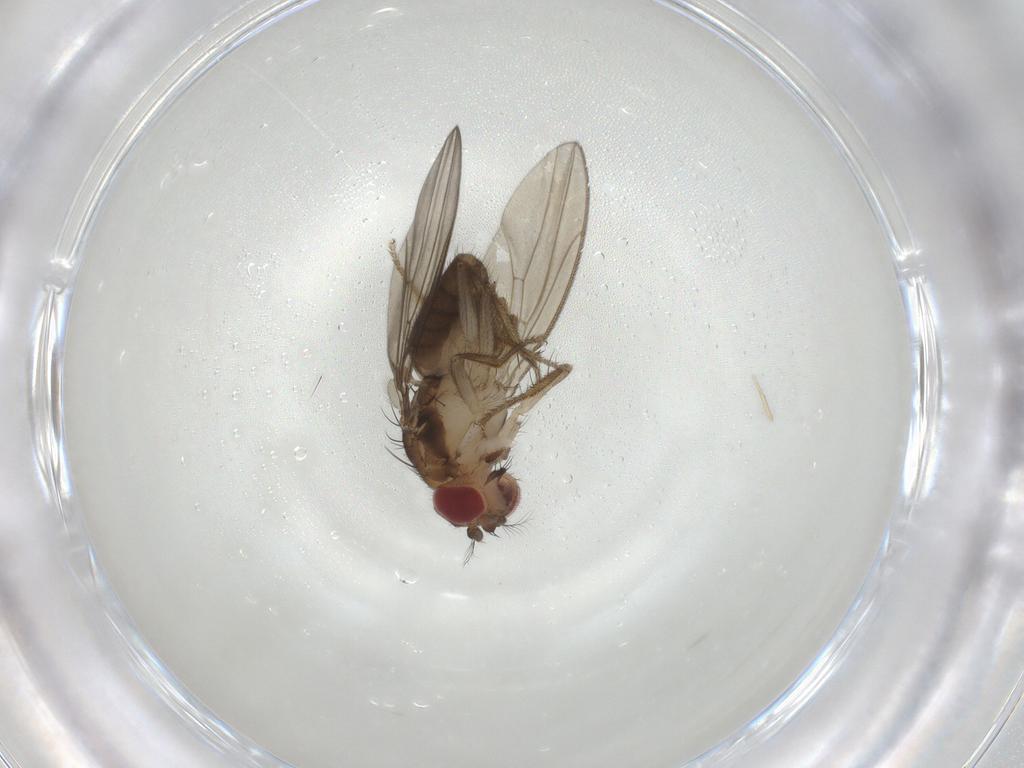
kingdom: Animalia
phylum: Arthropoda
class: Insecta
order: Diptera
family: Drosophilidae
